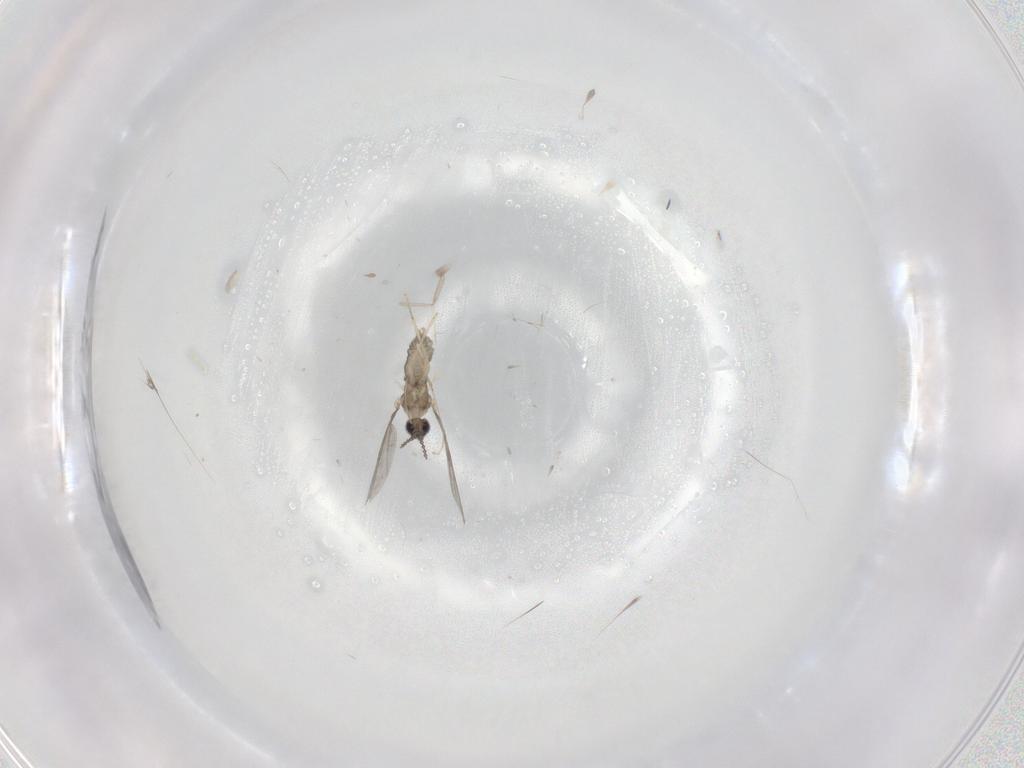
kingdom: Animalia
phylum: Arthropoda
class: Insecta
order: Diptera
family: Cecidomyiidae
